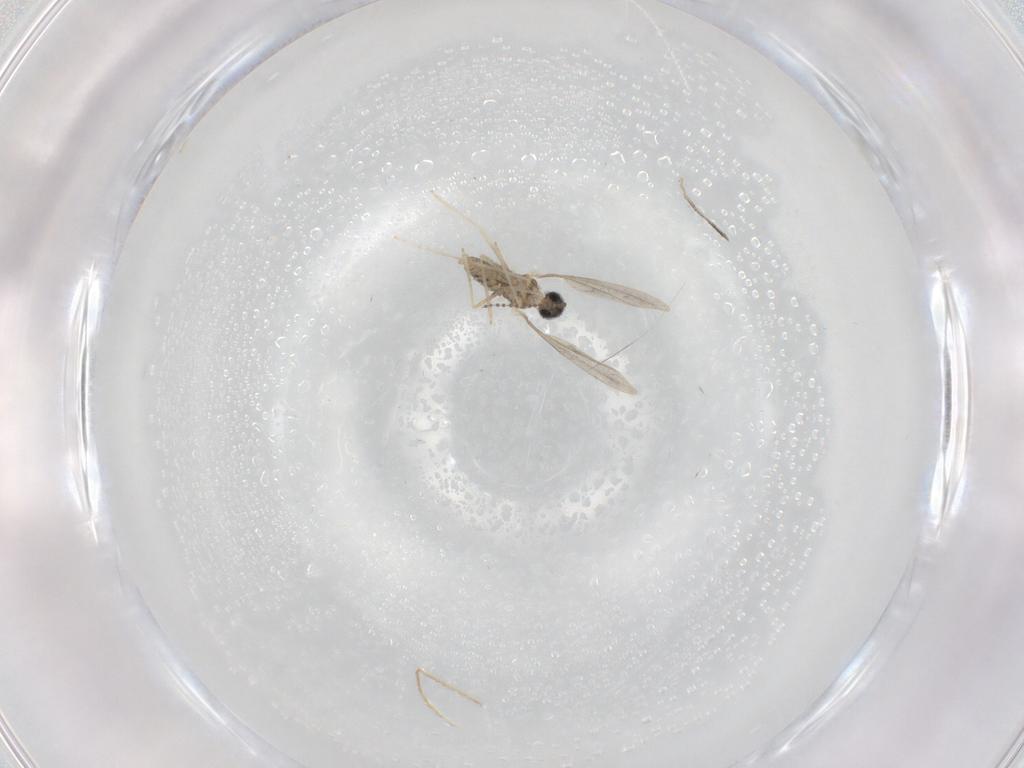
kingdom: Animalia
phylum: Arthropoda
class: Insecta
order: Diptera
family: Cecidomyiidae
